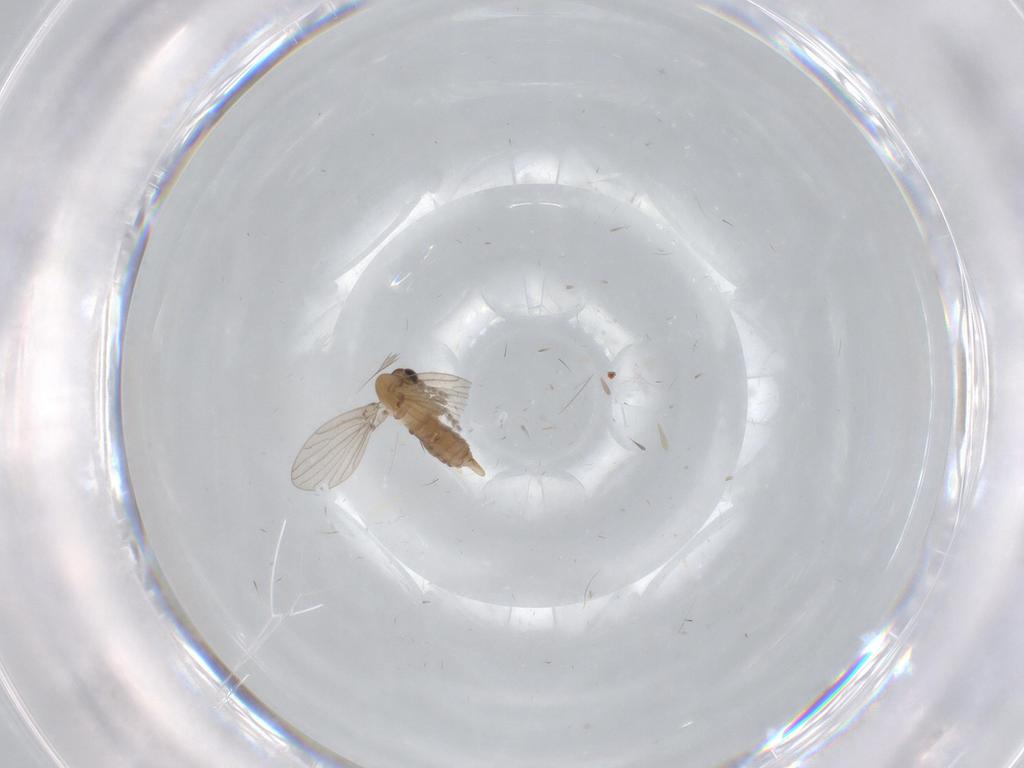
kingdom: Animalia
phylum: Arthropoda
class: Insecta
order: Diptera
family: Psychodidae
